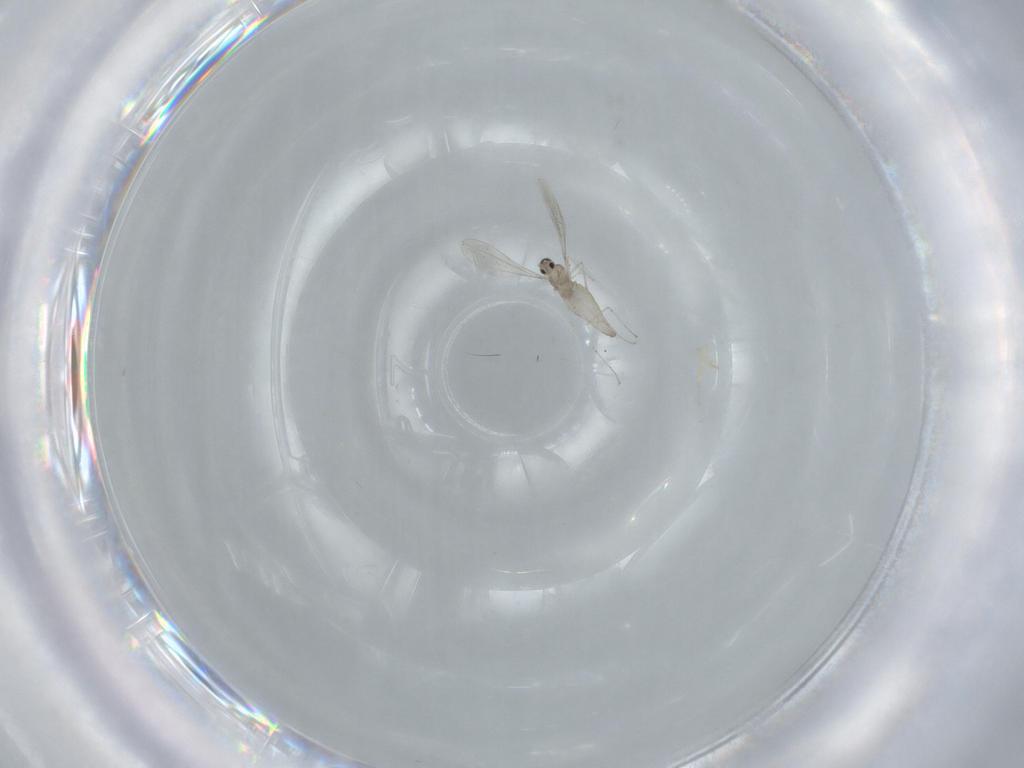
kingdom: Animalia
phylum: Arthropoda
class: Insecta
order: Diptera
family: Cecidomyiidae
